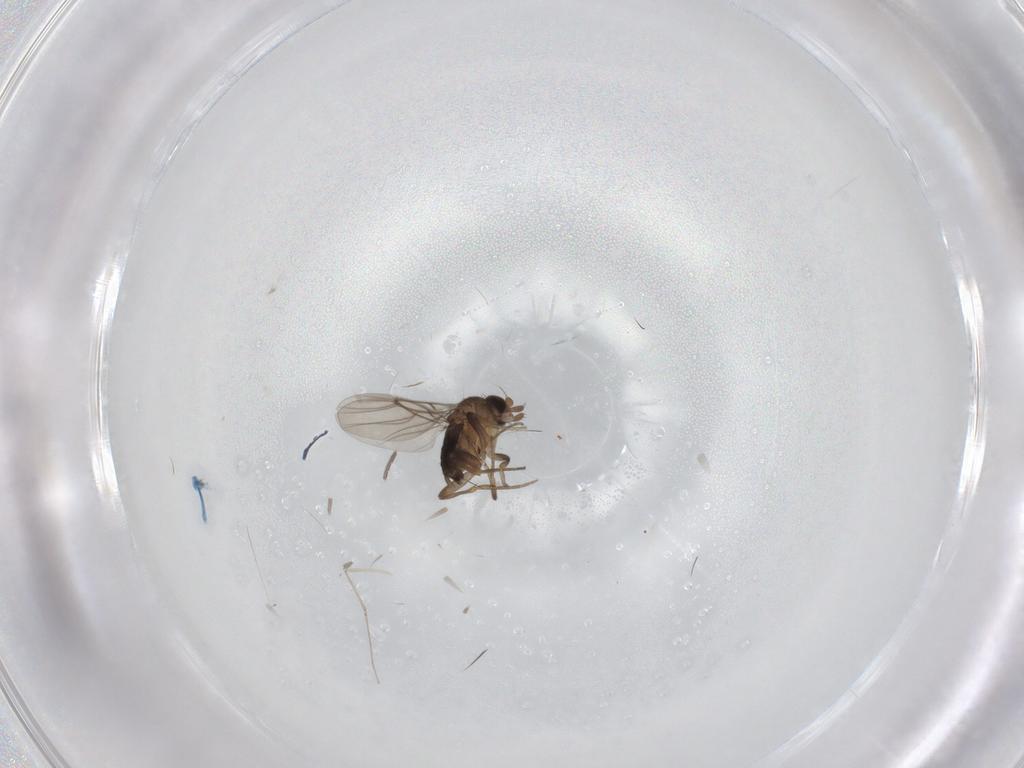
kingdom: Animalia
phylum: Arthropoda
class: Insecta
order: Diptera
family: Phoridae
